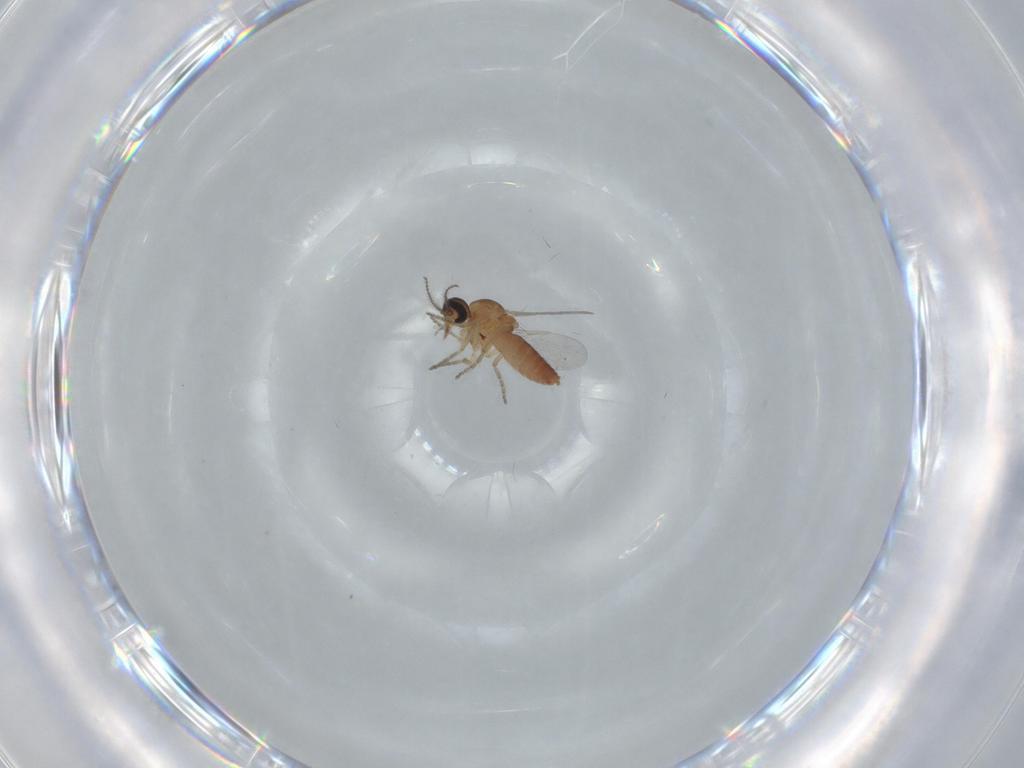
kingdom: Animalia
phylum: Arthropoda
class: Insecta
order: Diptera
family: Ceratopogonidae
